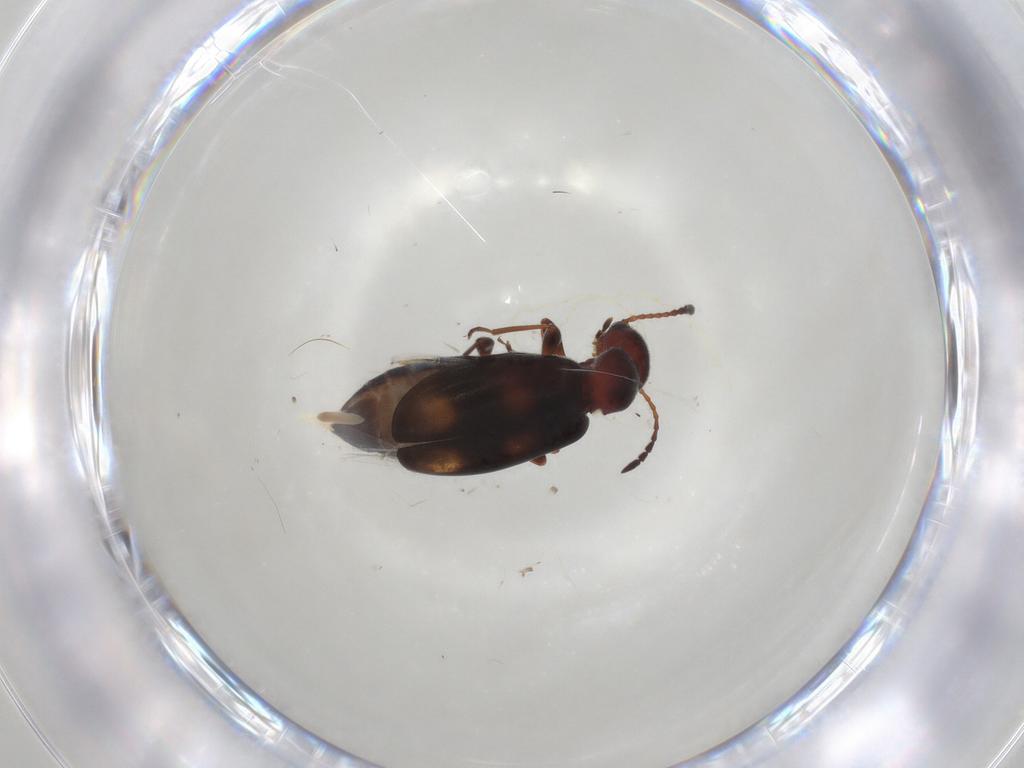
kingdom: Animalia
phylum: Arthropoda
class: Insecta
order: Coleoptera
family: Anthicidae
